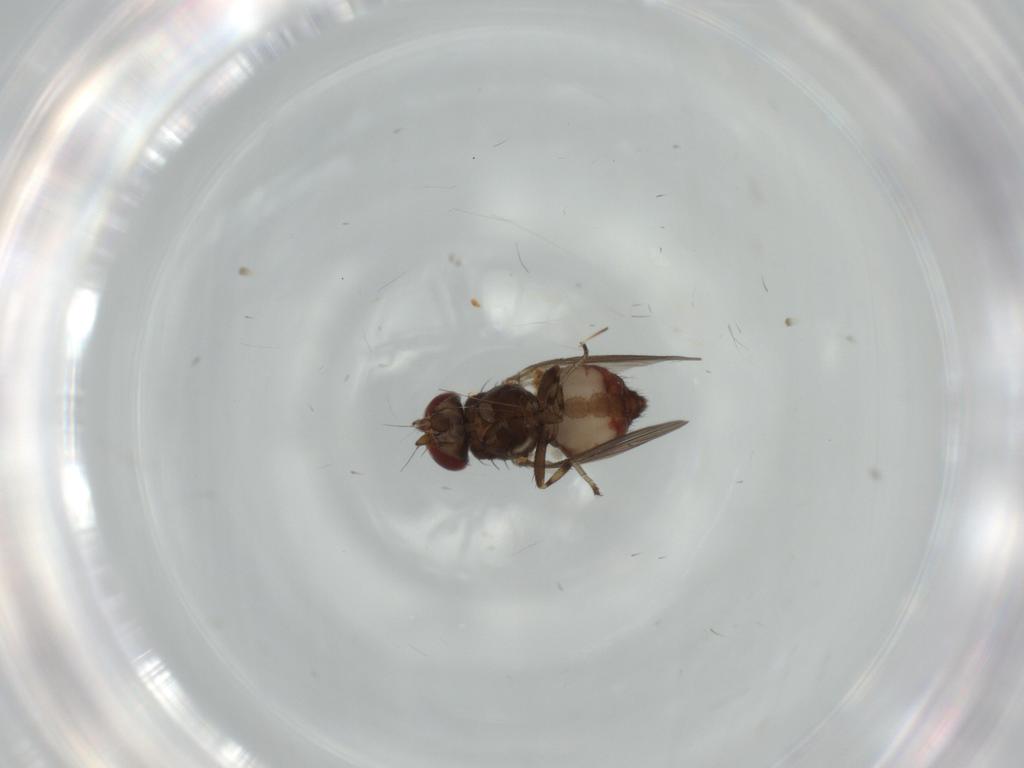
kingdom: Animalia
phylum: Arthropoda
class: Insecta
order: Diptera
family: Heleomyzidae
